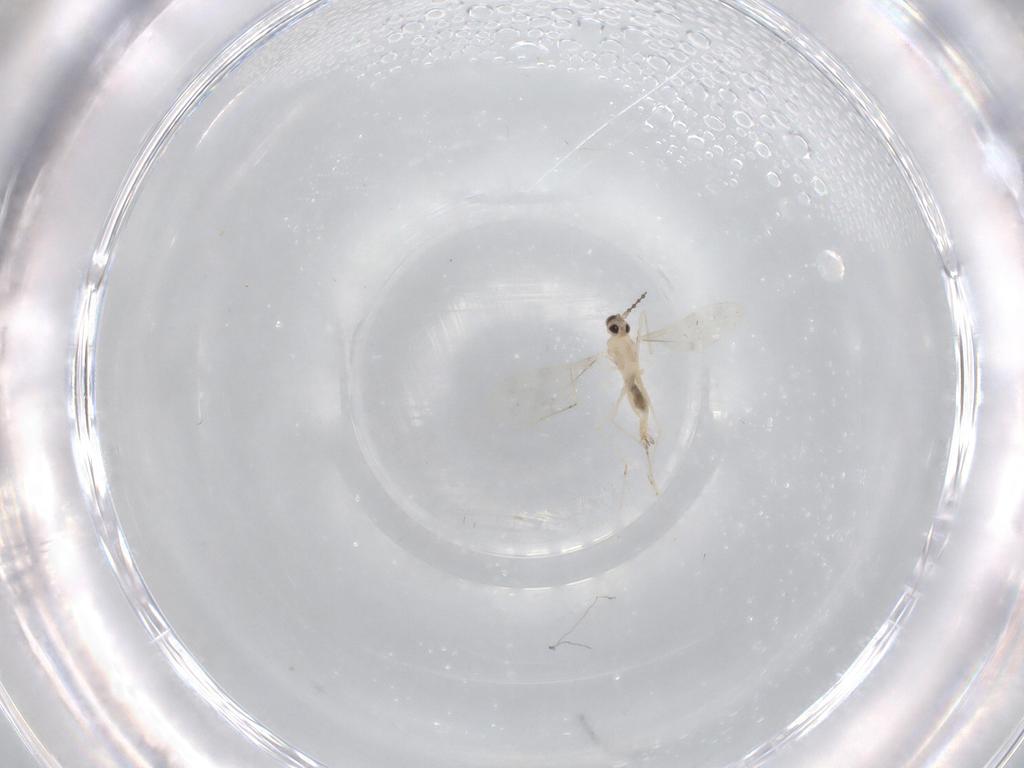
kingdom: Animalia
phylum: Arthropoda
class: Insecta
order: Diptera
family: Cecidomyiidae
